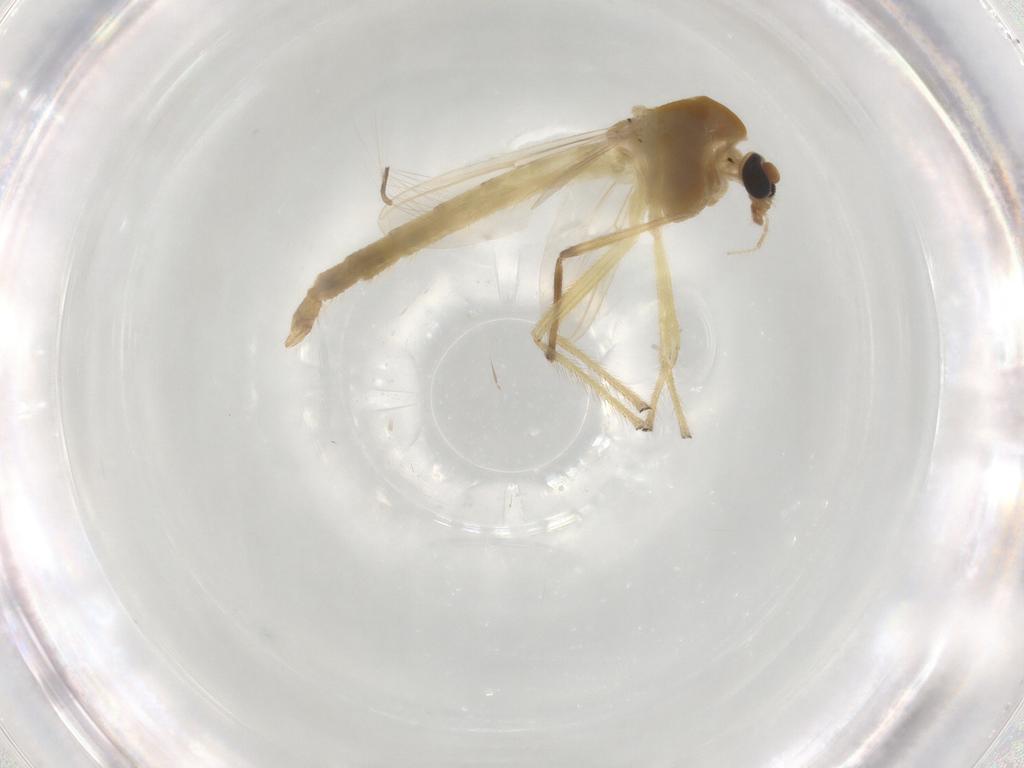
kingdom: Animalia
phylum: Arthropoda
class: Insecta
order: Diptera
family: Chironomidae
